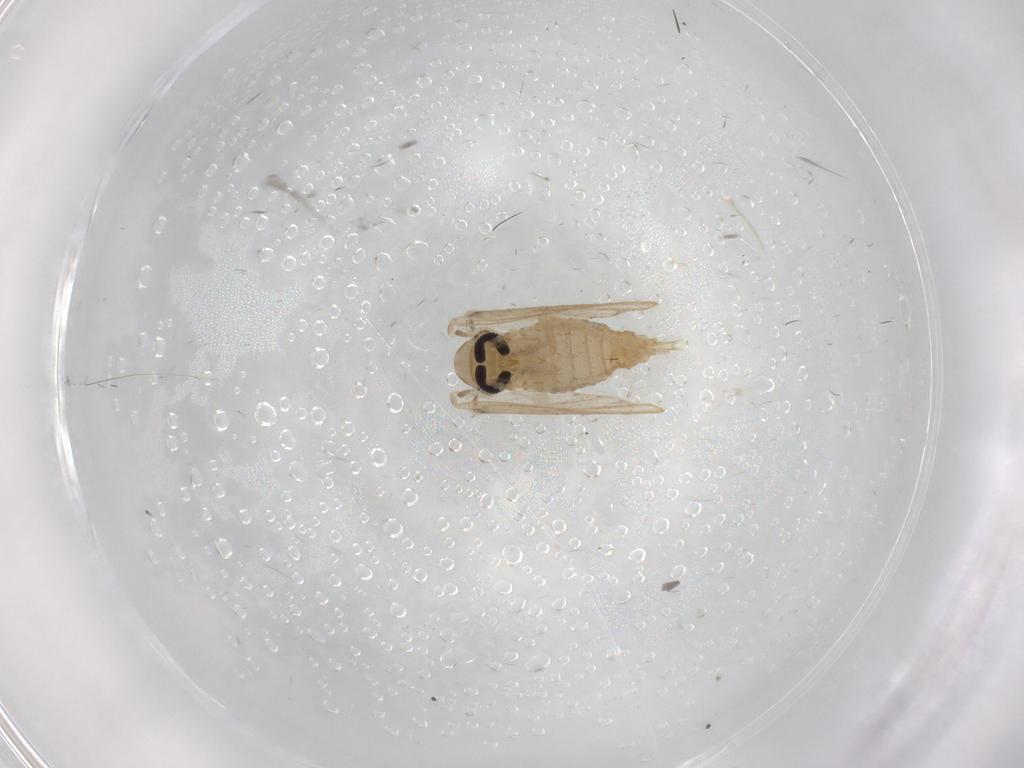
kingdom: Animalia
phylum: Arthropoda
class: Insecta
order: Diptera
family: Psychodidae
